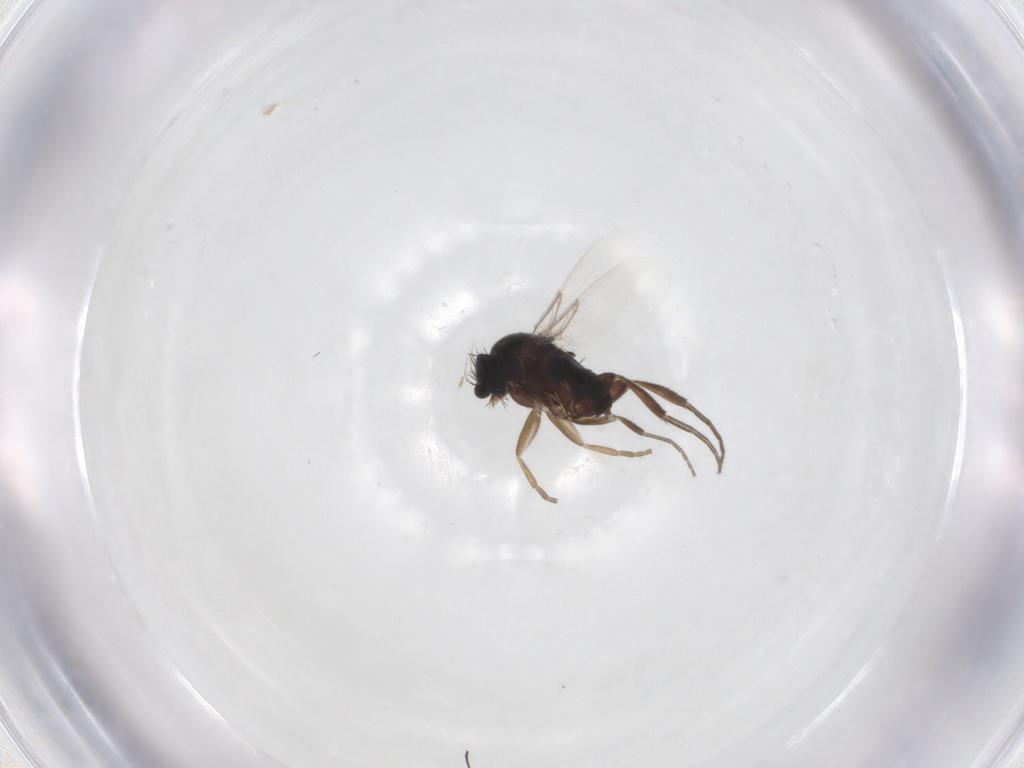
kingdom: Animalia
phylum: Arthropoda
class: Insecta
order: Diptera
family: Phoridae
